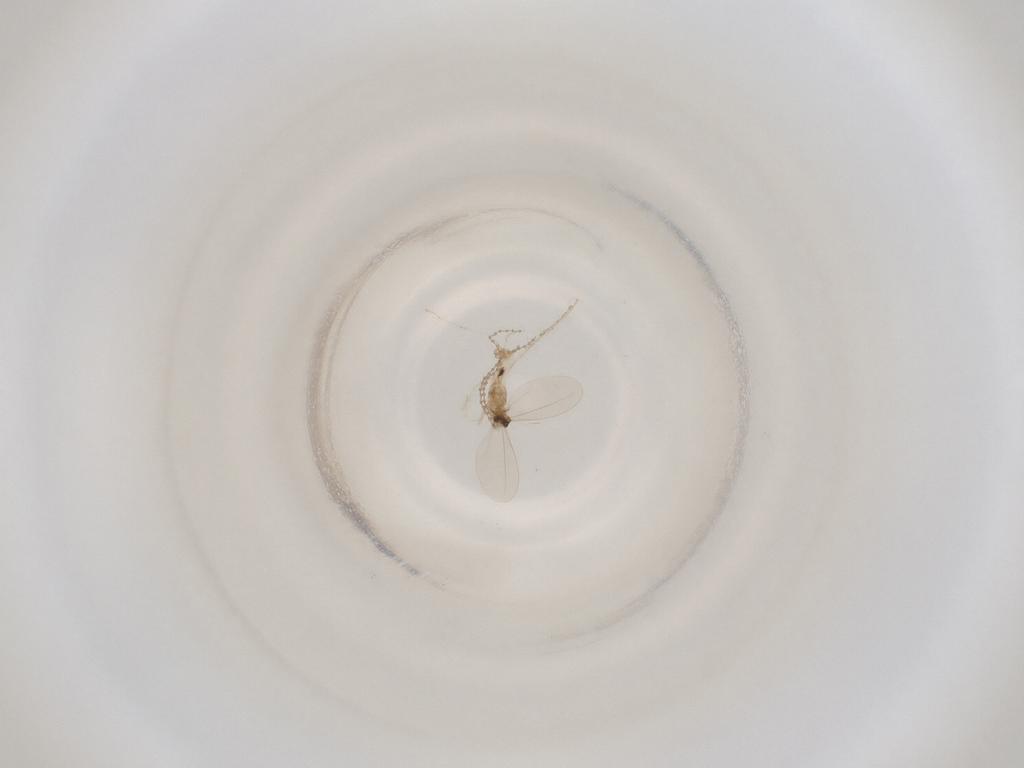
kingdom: Animalia
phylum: Arthropoda
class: Insecta
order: Diptera
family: Cecidomyiidae
